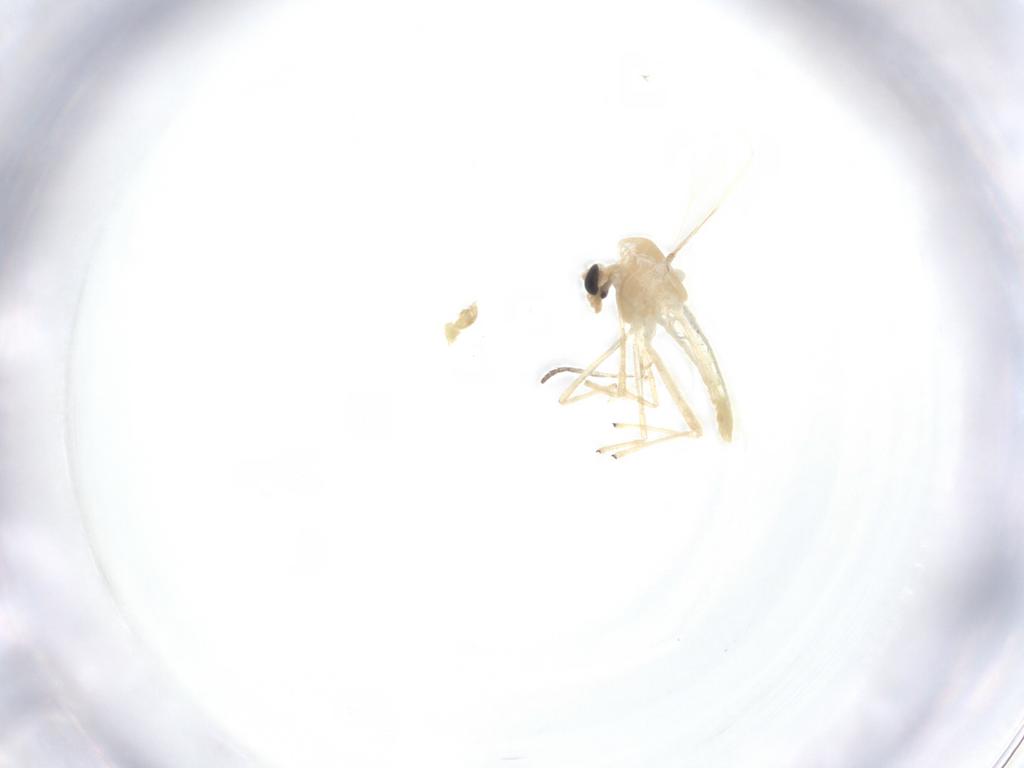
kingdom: Animalia
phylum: Arthropoda
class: Insecta
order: Diptera
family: Chironomidae
